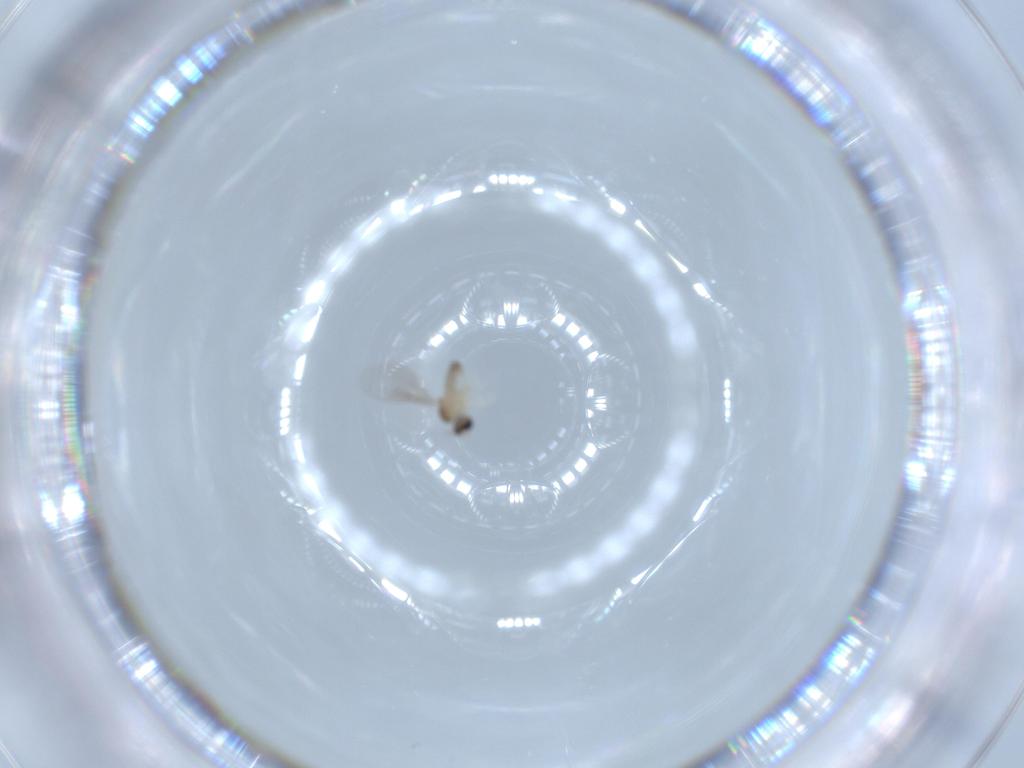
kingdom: Animalia
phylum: Arthropoda
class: Insecta
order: Diptera
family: Cecidomyiidae
